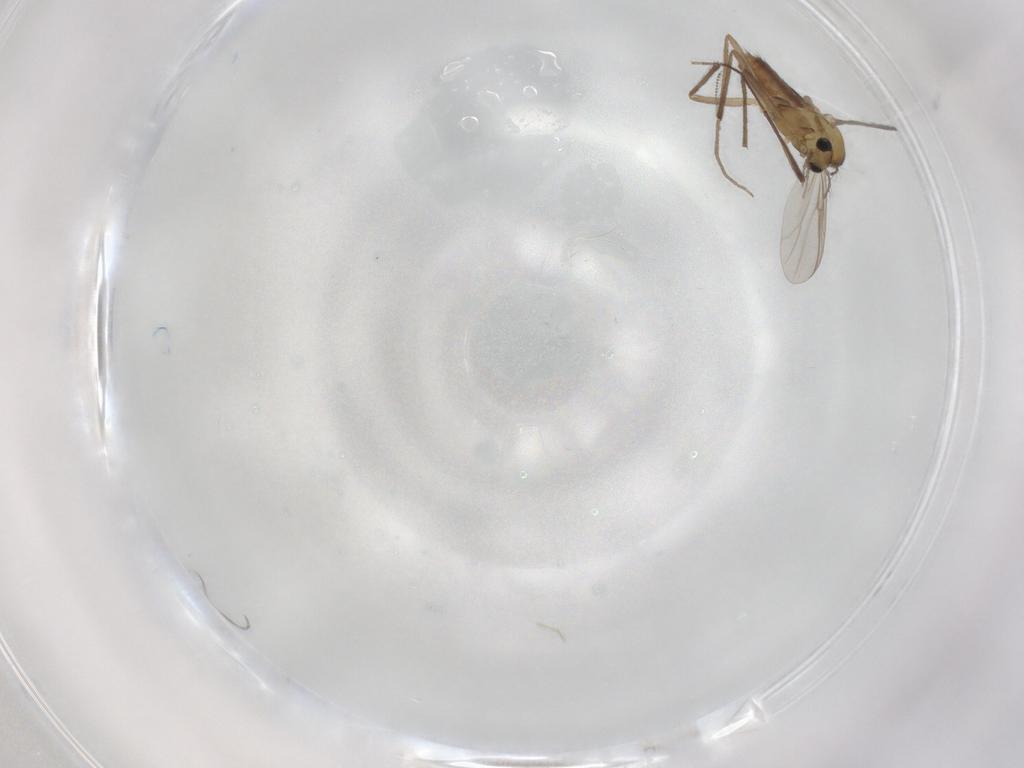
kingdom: Animalia
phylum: Arthropoda
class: Insecta
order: Diptera
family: Chironomidae
